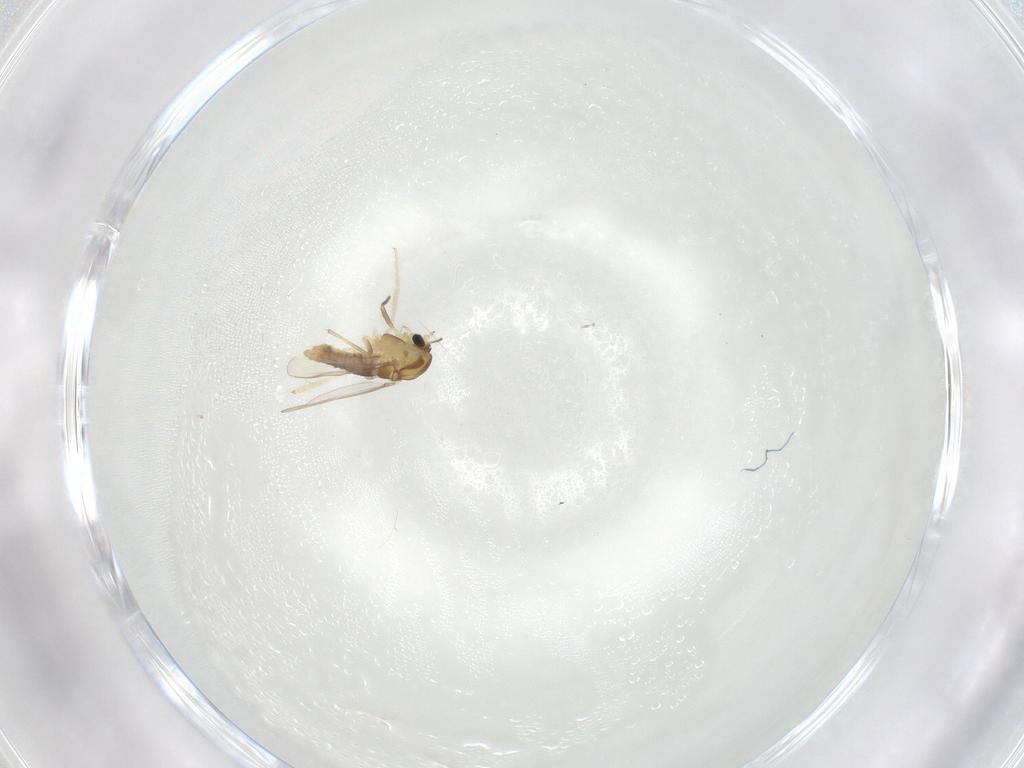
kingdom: Animalia
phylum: Arthropoda
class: Insecta
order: Diptera
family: Chironomidae
